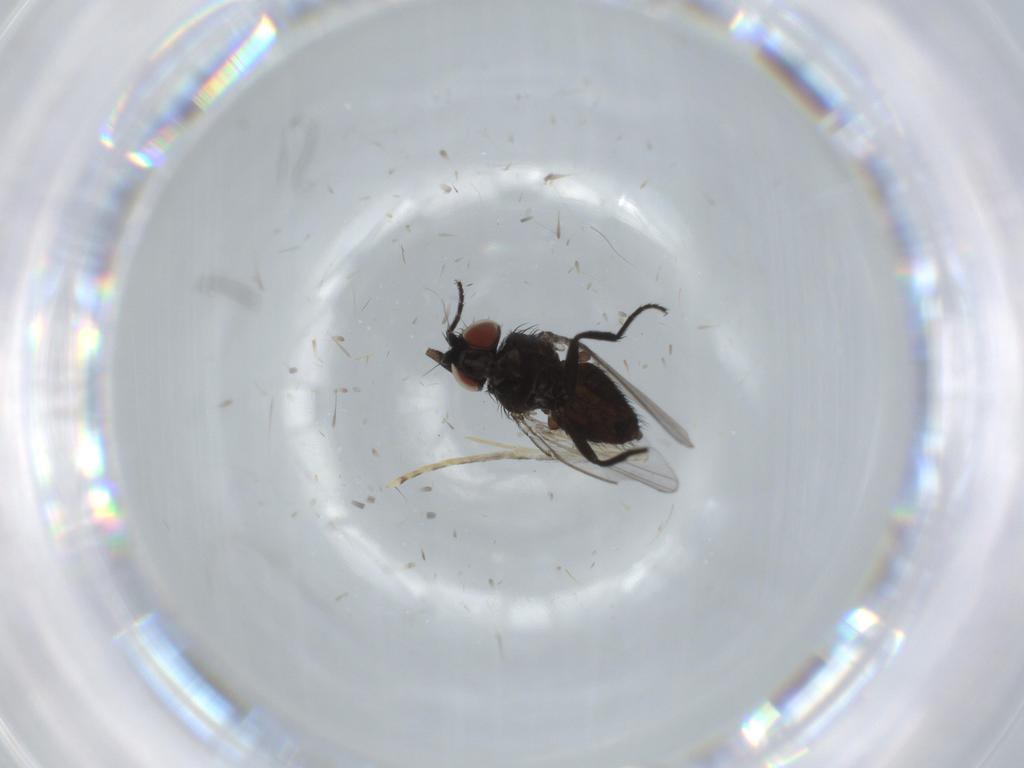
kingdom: Animalia
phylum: Arthropoda
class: Insecta
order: Diptera
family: Milichiidae
